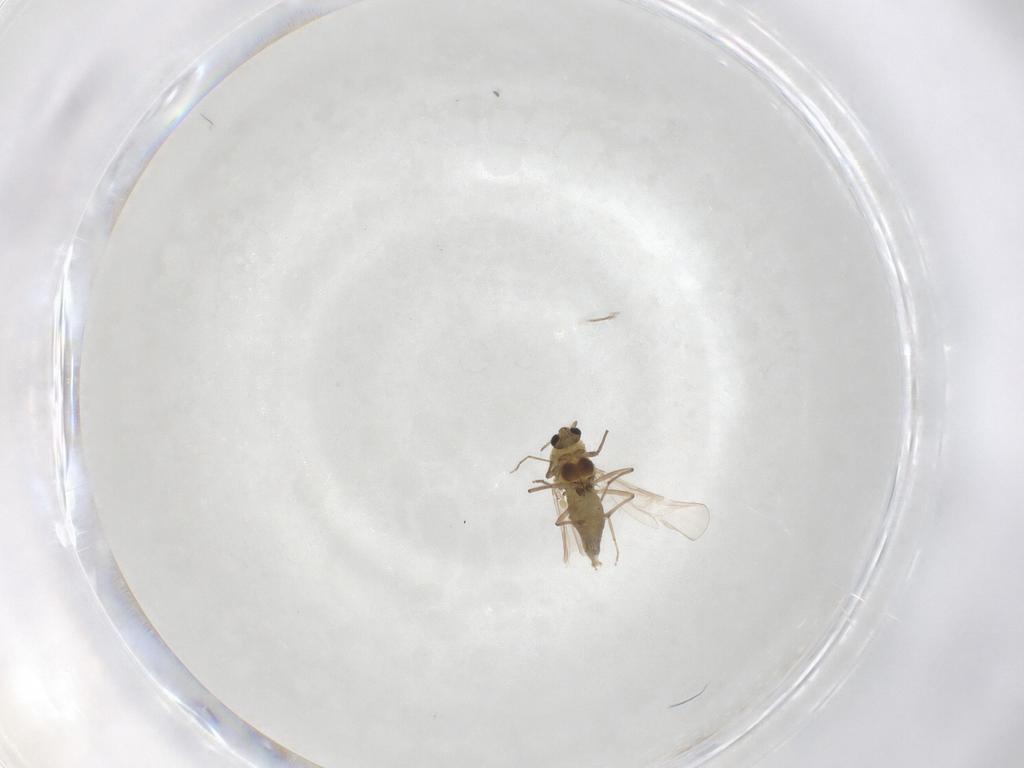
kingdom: Animalia
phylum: Arthropoda
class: Insecta
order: Diptera
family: Chironomidae
